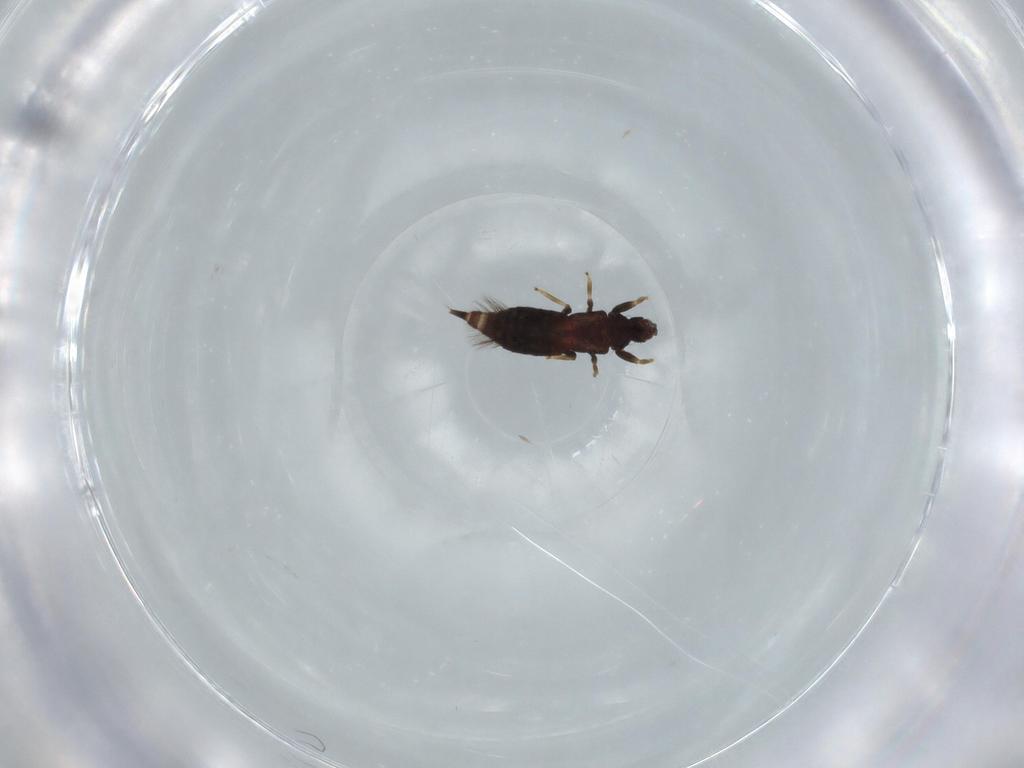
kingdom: Animalia
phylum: Arthropoda
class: Insecta
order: Thysanoptera
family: Phlaeothripidae
